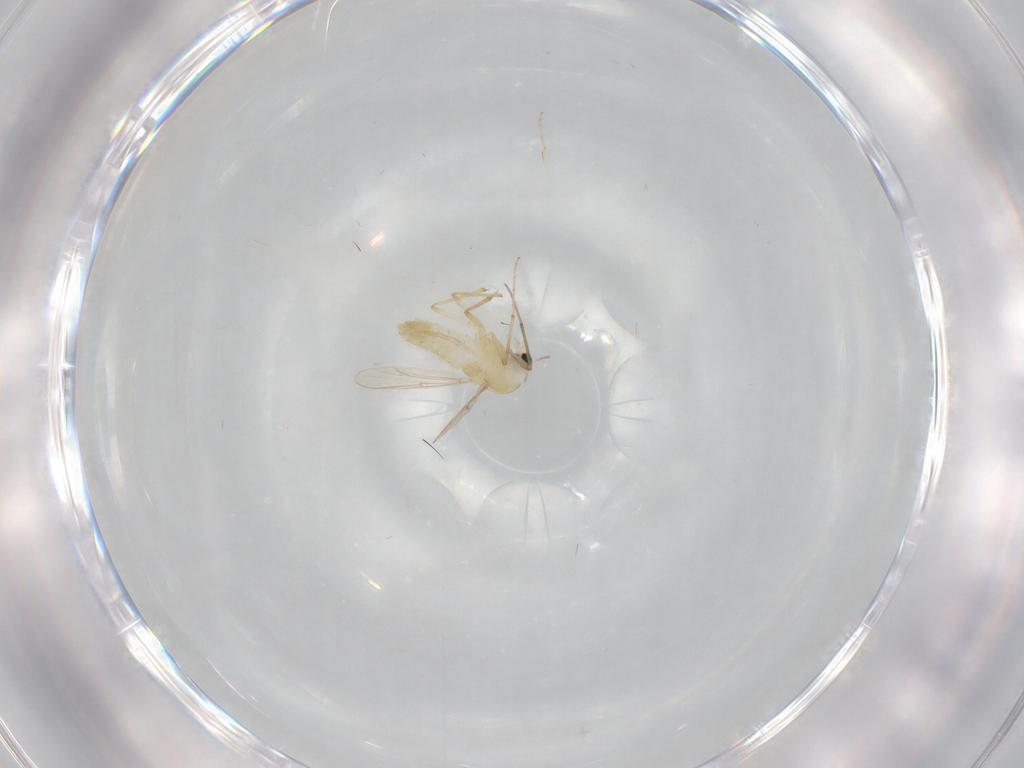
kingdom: Animalia
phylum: Arthropoda
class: Insecta
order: Diptera
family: Chironomidae
